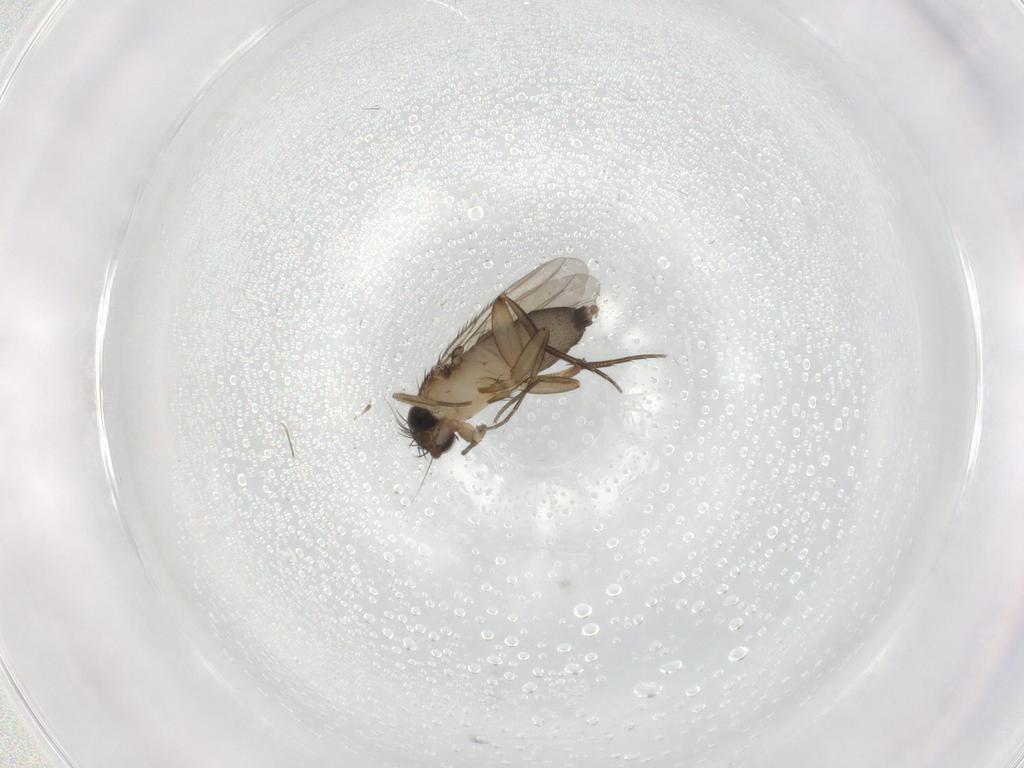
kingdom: Animalia
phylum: Arthropoda
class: Insecta
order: Diptera
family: Phoridae
